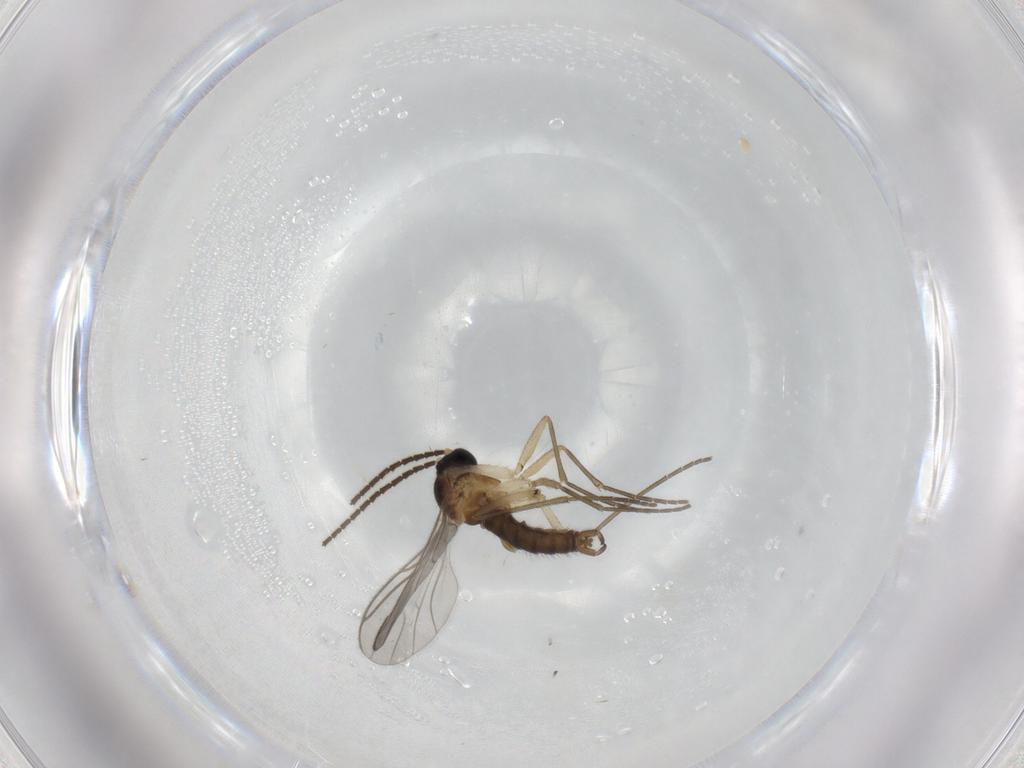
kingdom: Animalia
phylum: Arthropoda
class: Insecta
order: Diptera
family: Sciaridae
